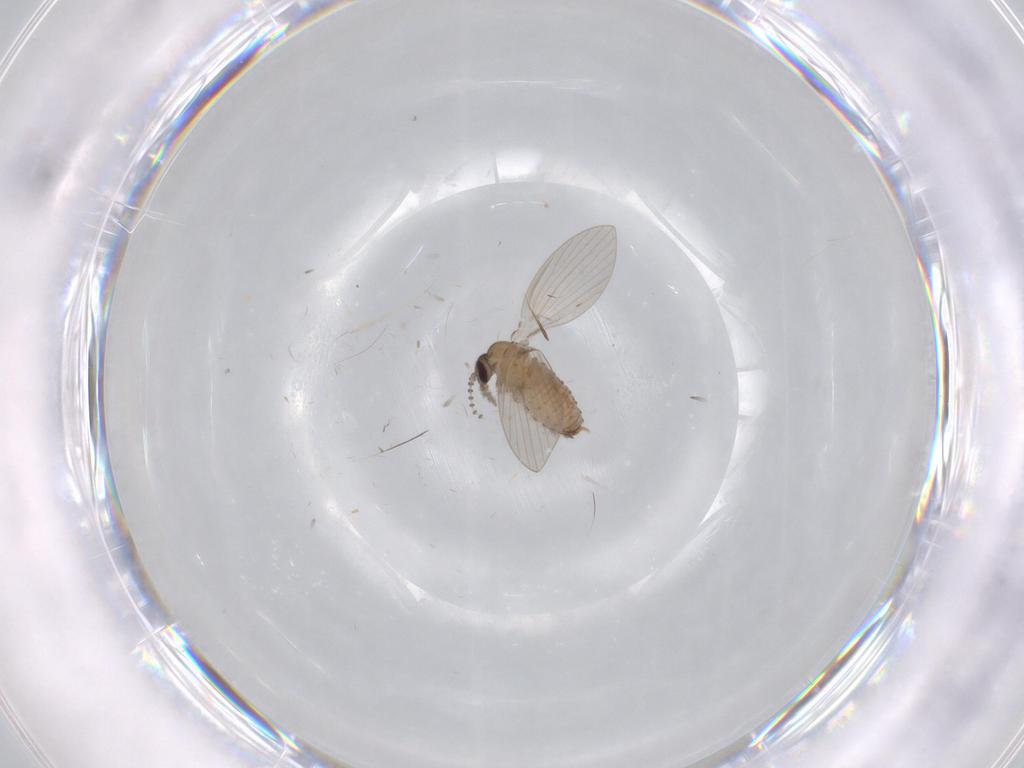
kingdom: Animalia
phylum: Arthropoda
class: Insecta
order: Diptera
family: Psychodidae
